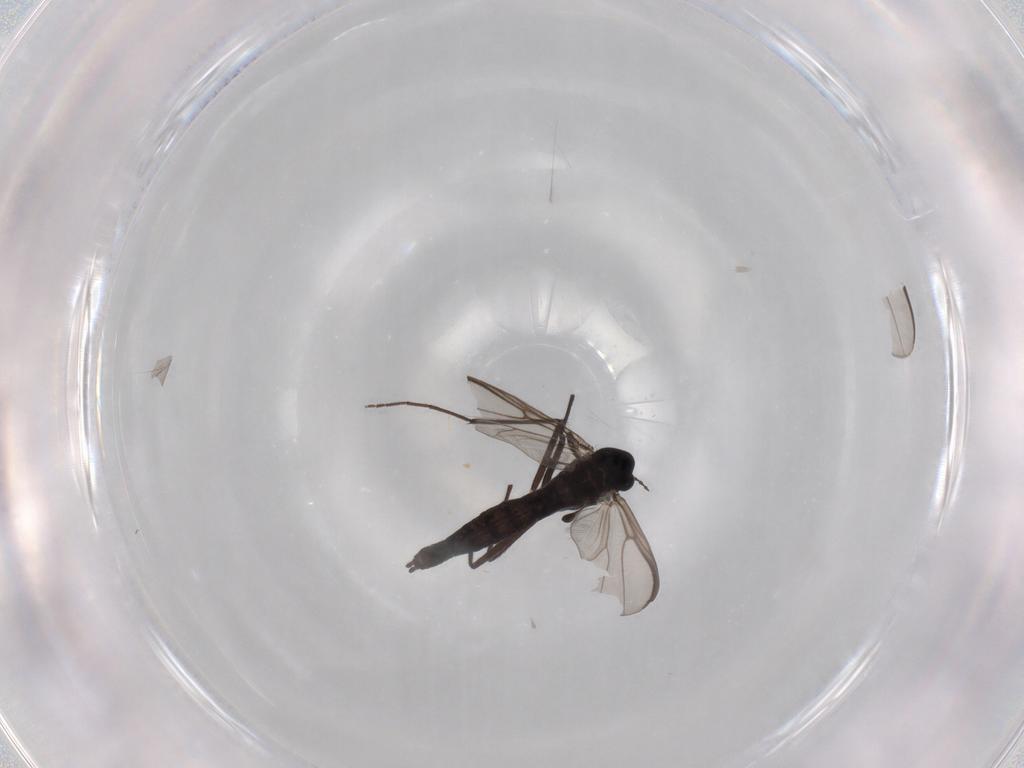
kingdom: Animalia
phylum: Arthropoda
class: Insecta
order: Diptera
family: Chironomidae
